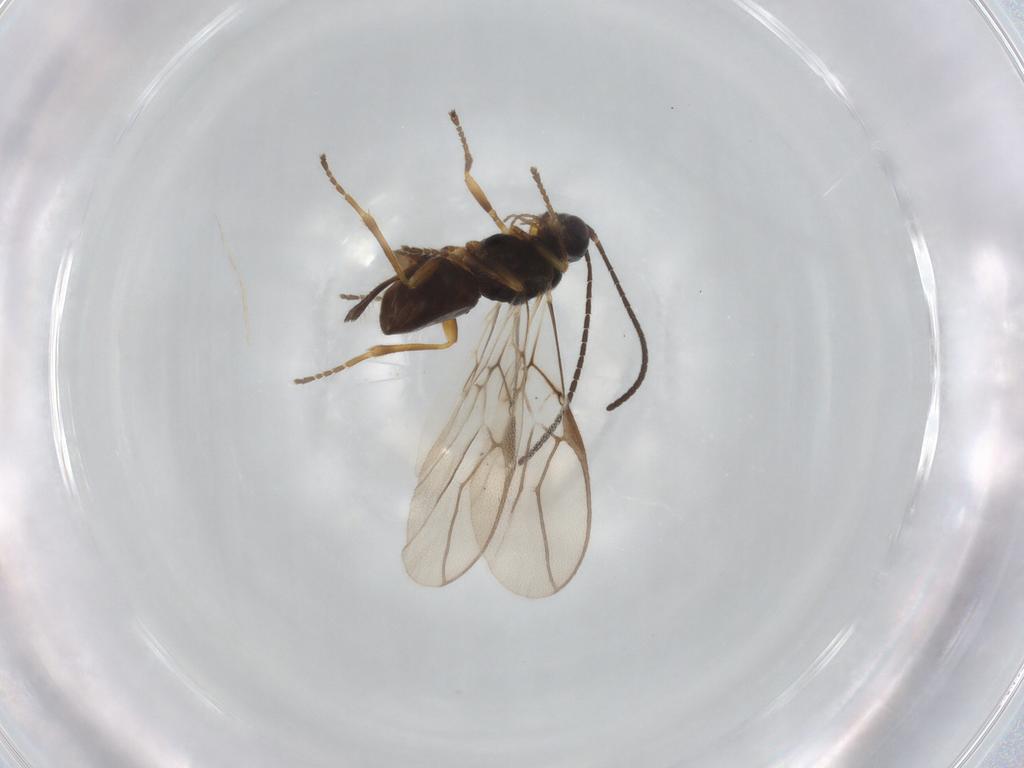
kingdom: Animalia
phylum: Arthropoda
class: Insecta
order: Hymenoptera
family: Braconidae
